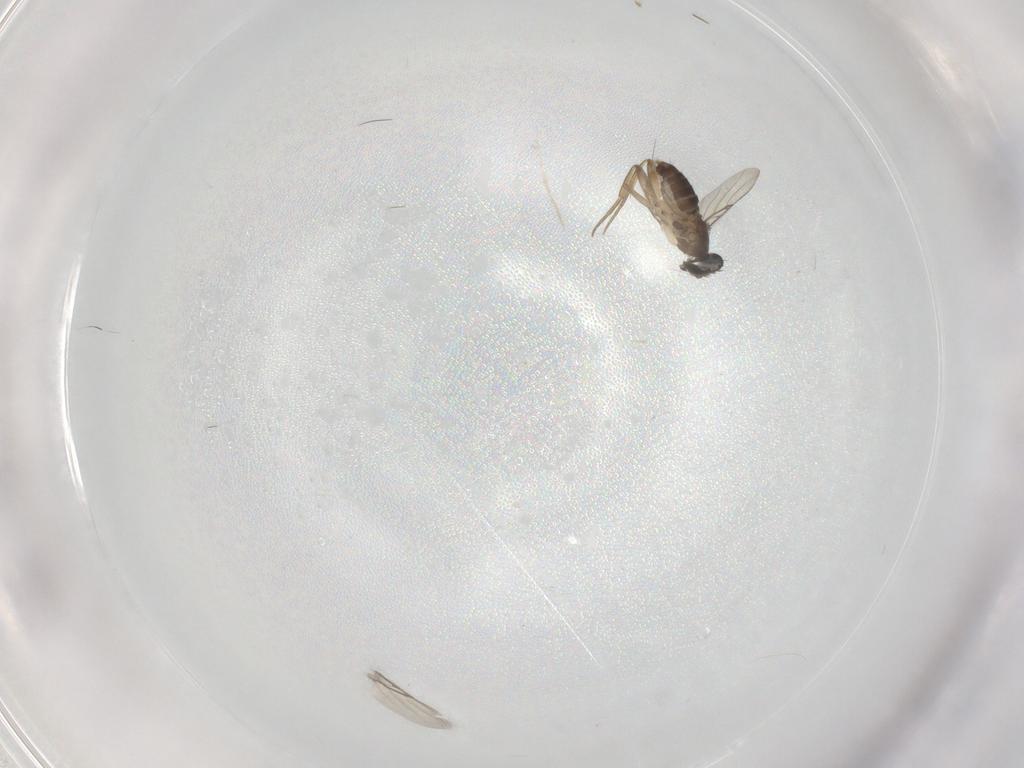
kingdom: Animalia
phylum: Arthropoda
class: Insecta
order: Diptera
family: Phoridae
